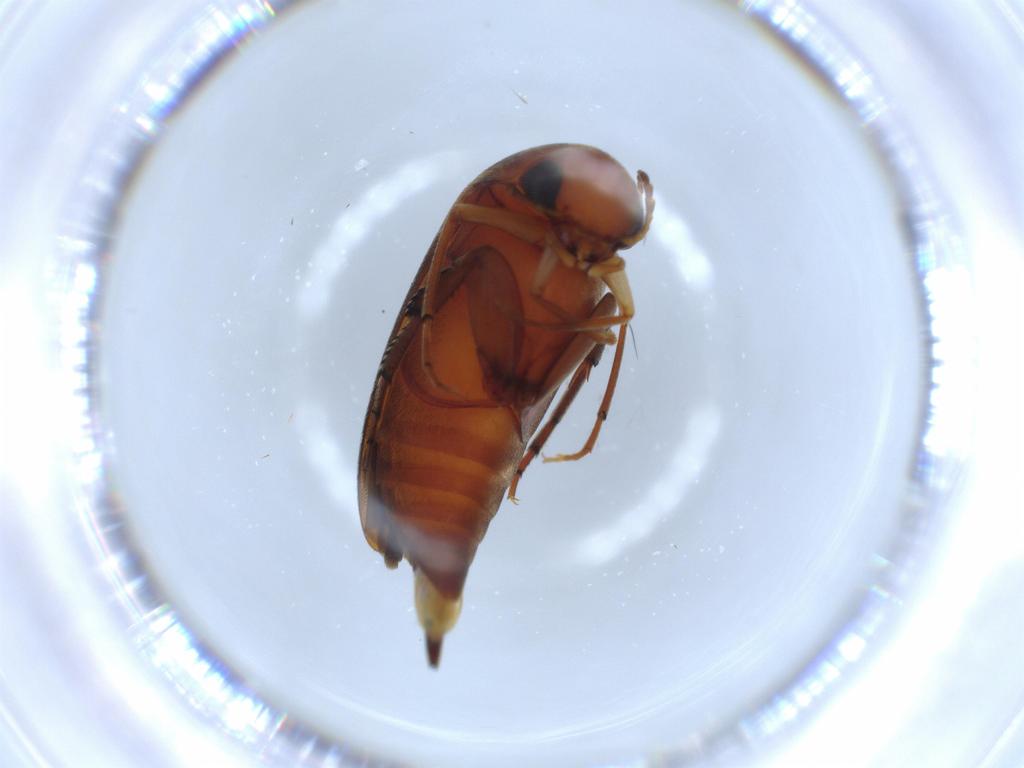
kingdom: Animalia
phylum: Arthropoda
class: Insecta
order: Coleoptera
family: Mordellidae
